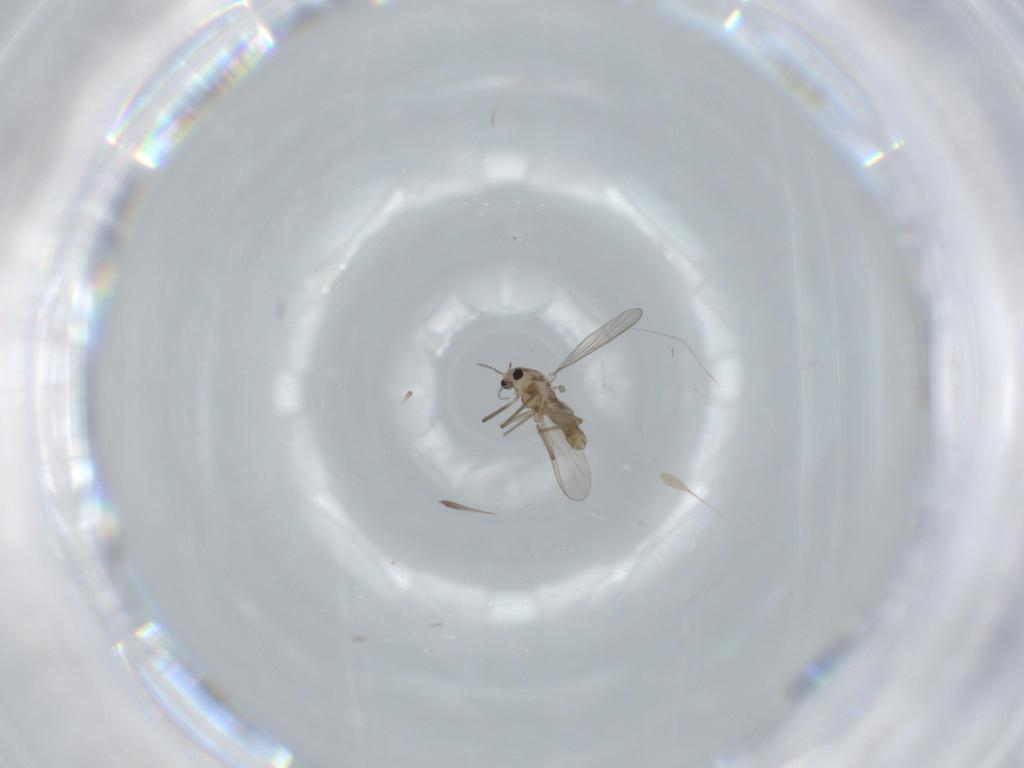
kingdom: Animalia
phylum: Arthropoda
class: Insecta
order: Diptera
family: Chironomidae
